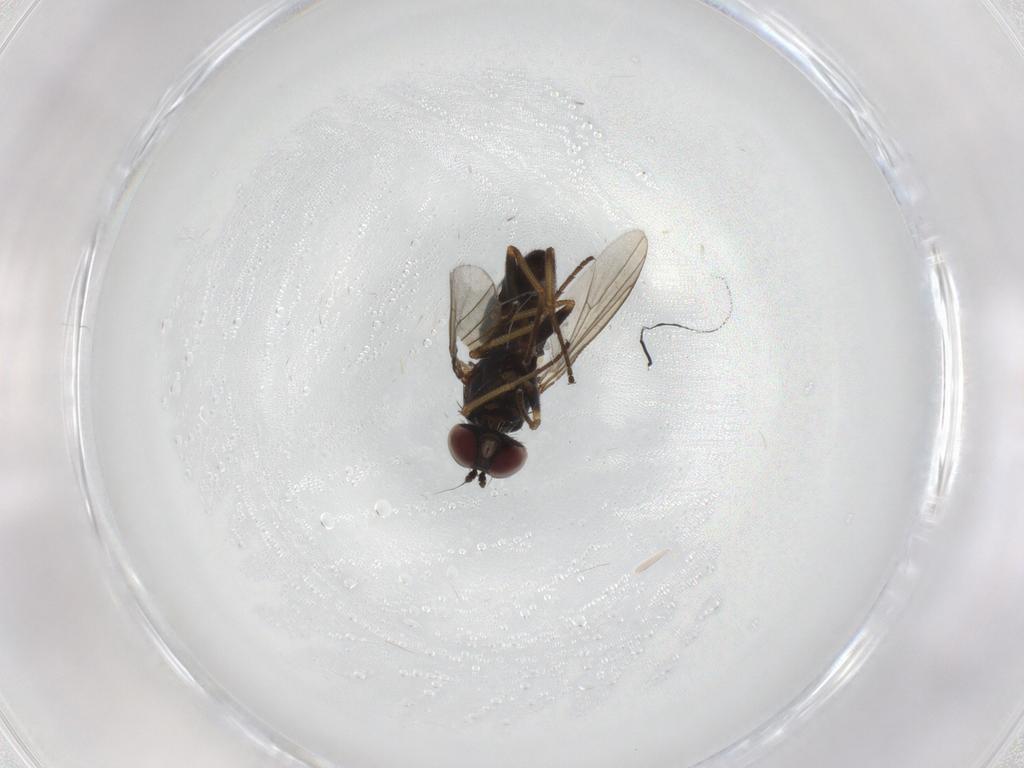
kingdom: Animalia
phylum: Arthropoda
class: Insecta
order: Diptera
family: Dolichopodidae
